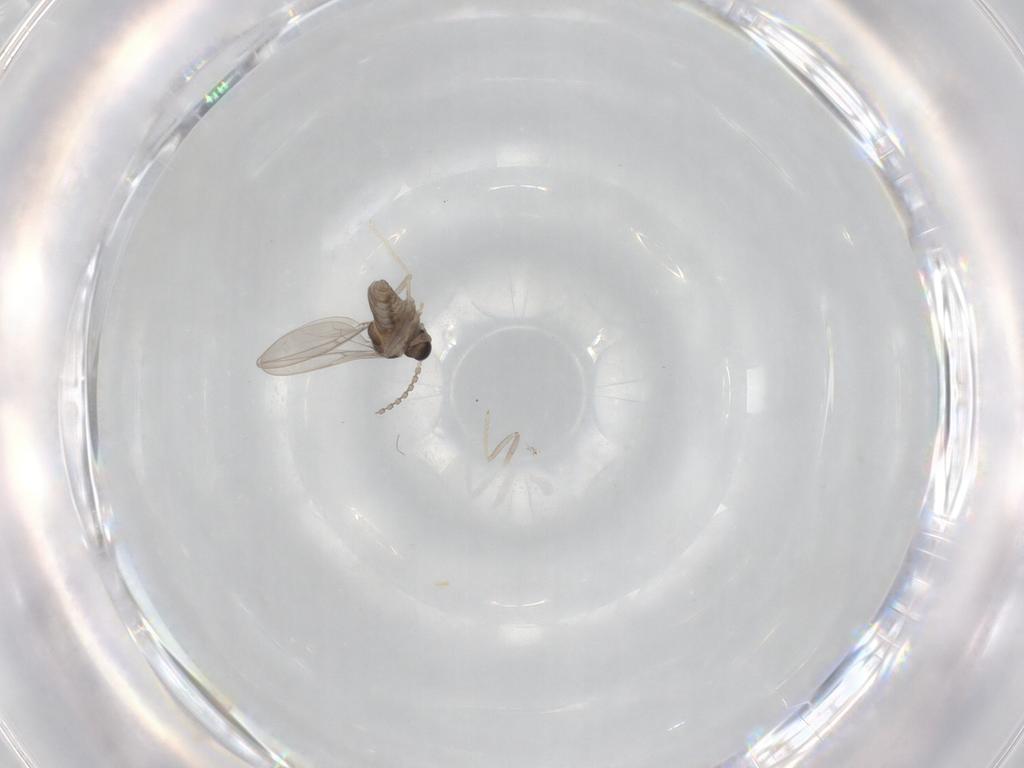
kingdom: Animalia
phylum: Arthropoda
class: Insecta
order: Diptera
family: Cecidomyiidae
